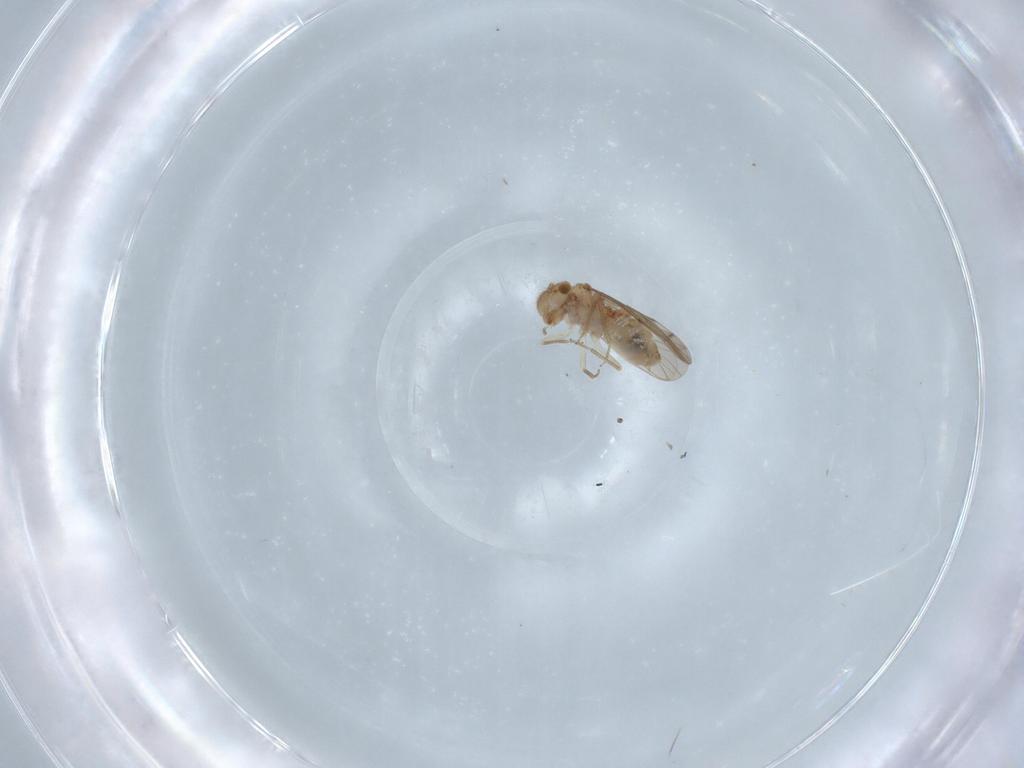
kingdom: Animalia
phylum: Arthropoda
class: Insecta
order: Psocodea
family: Ectopsocidae
